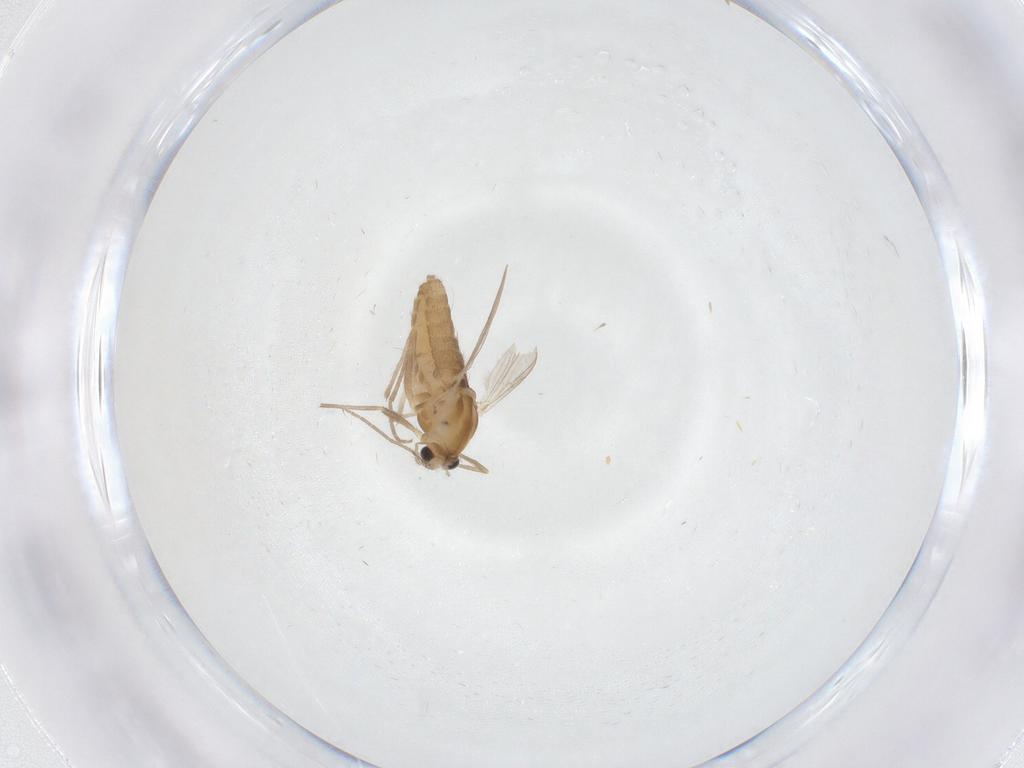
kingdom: Animalia
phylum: Arthropoda
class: Insecta
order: Diptera
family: Chironomidae
